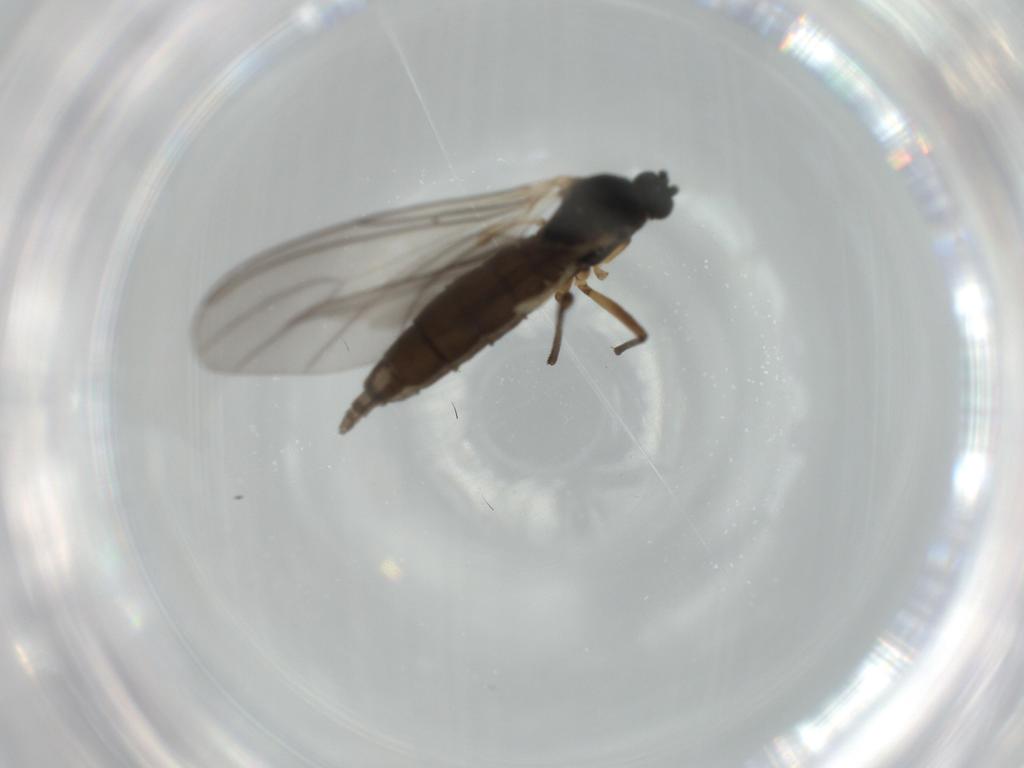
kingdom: Animalia
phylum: Arthropoda
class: Insecta
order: Diptera
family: Sciaridae
